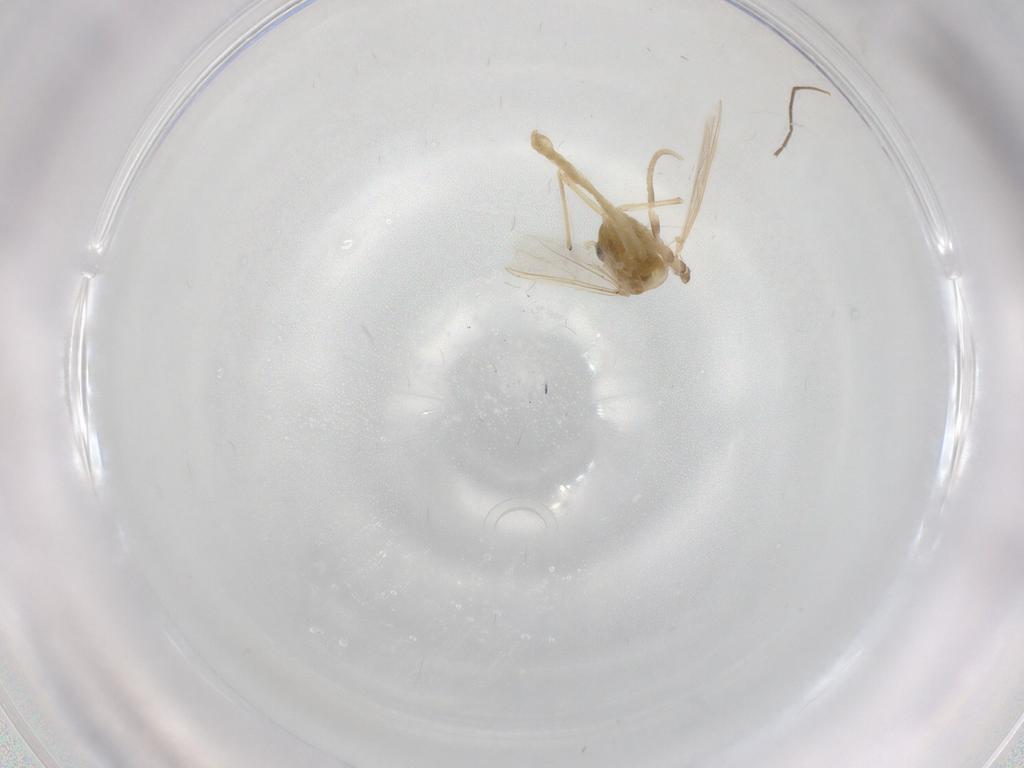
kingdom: Animalia
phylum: Arthropoda
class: Insecta
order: Diptera
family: Chironomidae
